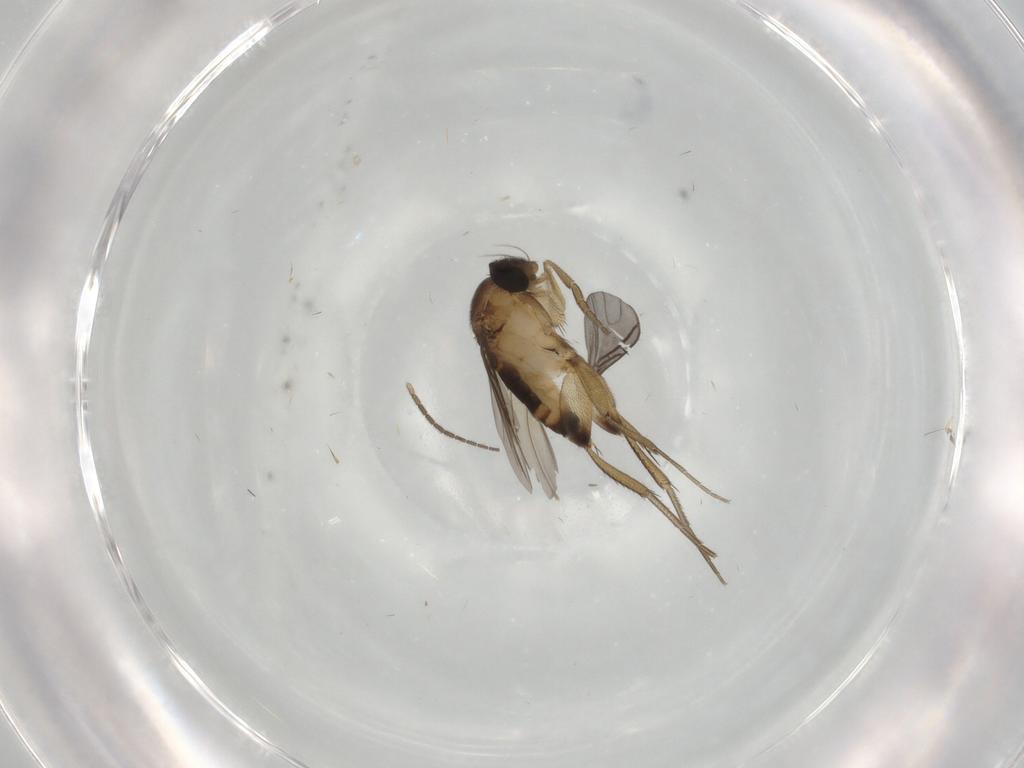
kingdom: Animalia
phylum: Arthropoda
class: Insecta
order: Diptera
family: Phoridae
